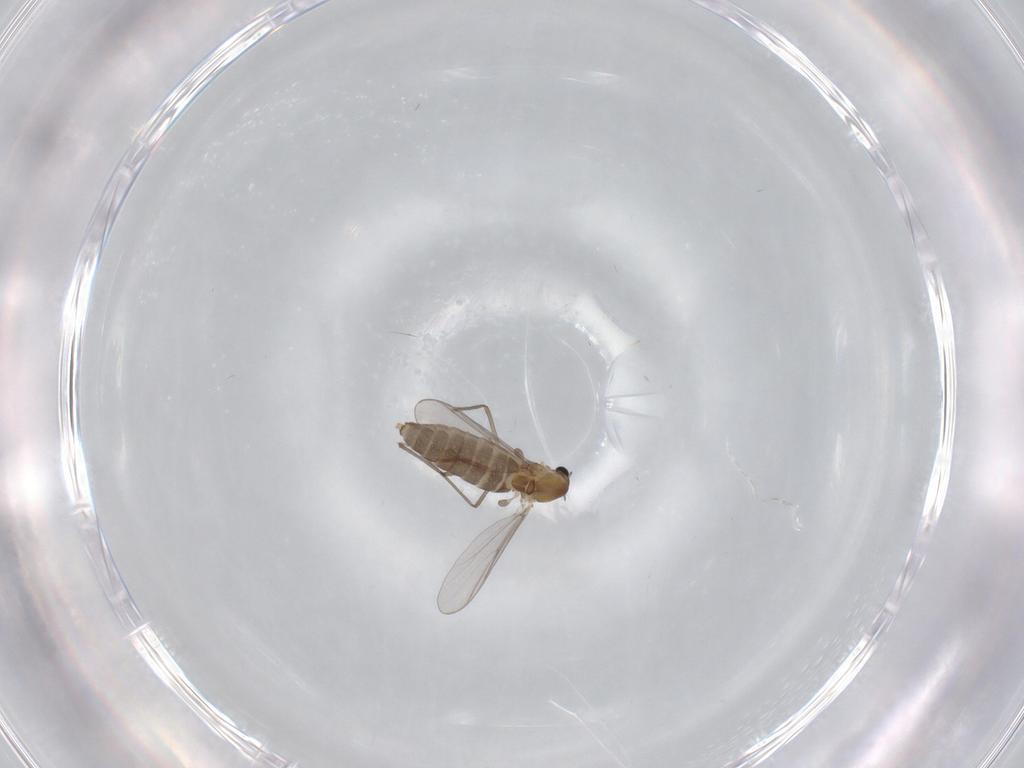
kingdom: Animalia
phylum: Arthropoda
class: Insecta
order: Diptera
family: Chironomidae
